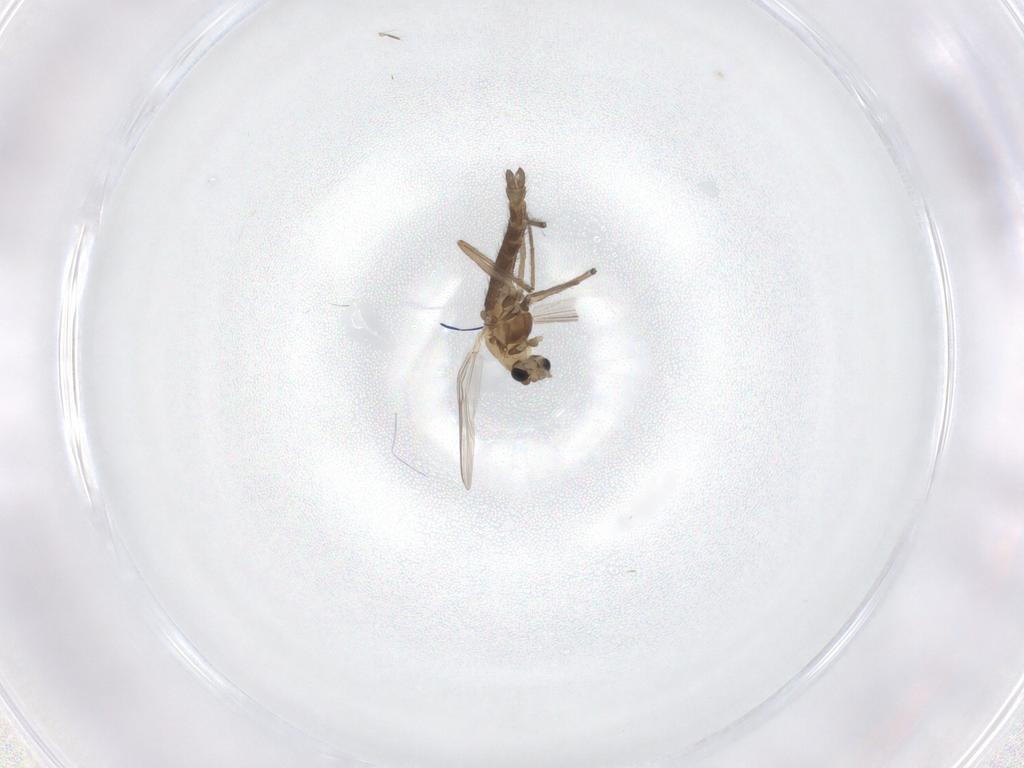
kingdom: Animalia
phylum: Arthropoda
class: Insecta
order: Diptera
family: Chironomidae
